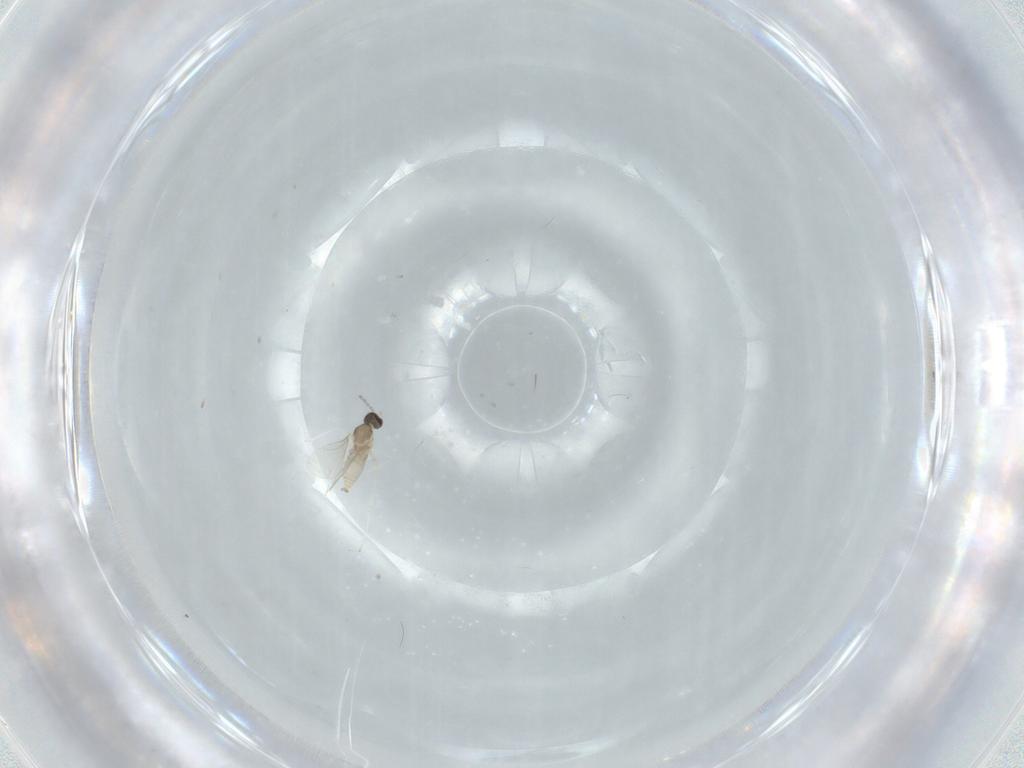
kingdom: Animalia
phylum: Arthropoda
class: Insecta
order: Diptera
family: Cecidomyiidae
